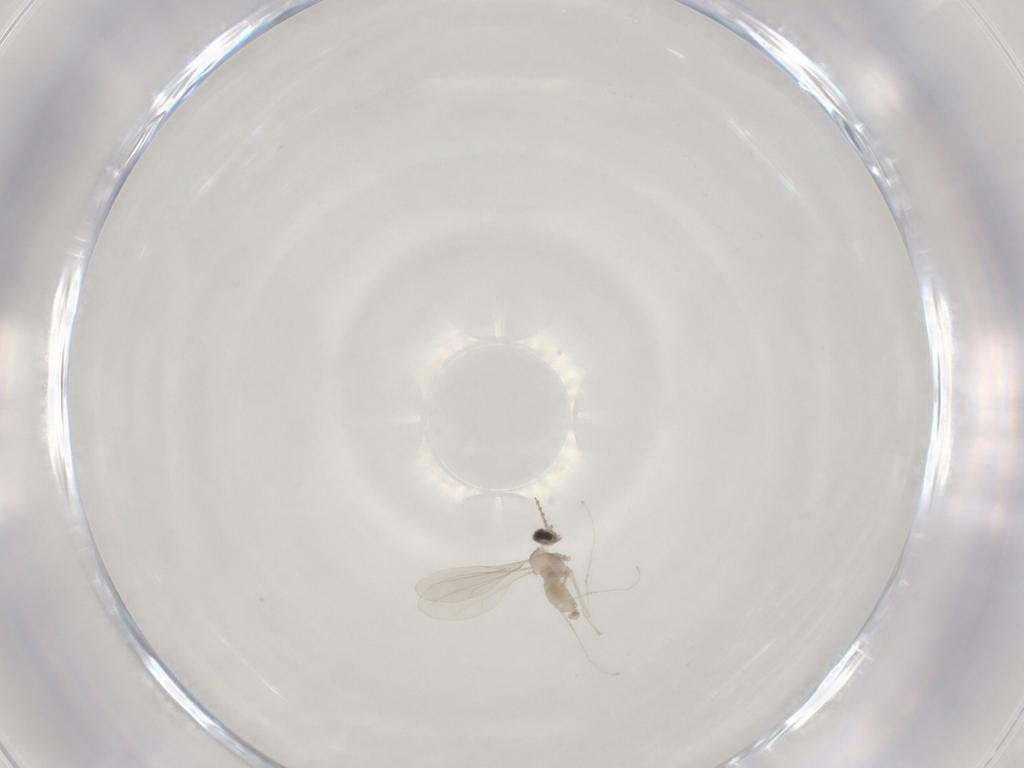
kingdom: Animalia
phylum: Arthropoda
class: Insecta
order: Diptera
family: Cecidomyiidae
